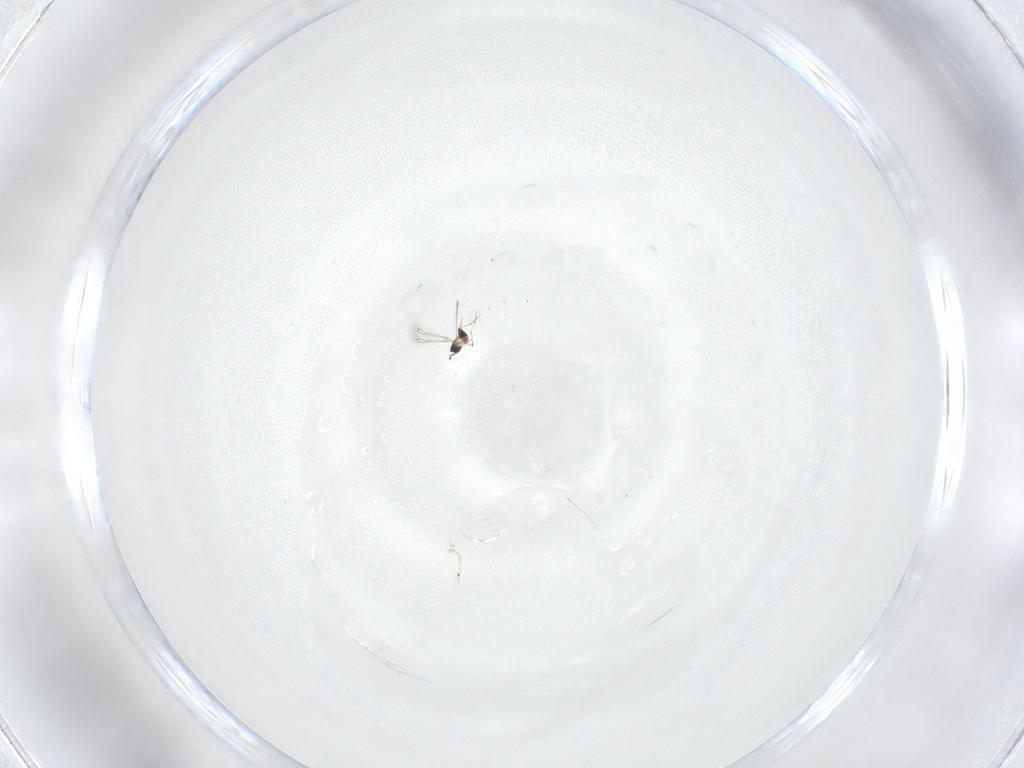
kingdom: Animalia
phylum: Arthropoda
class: Insecta
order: Hymenoptera
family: Mymaridae
